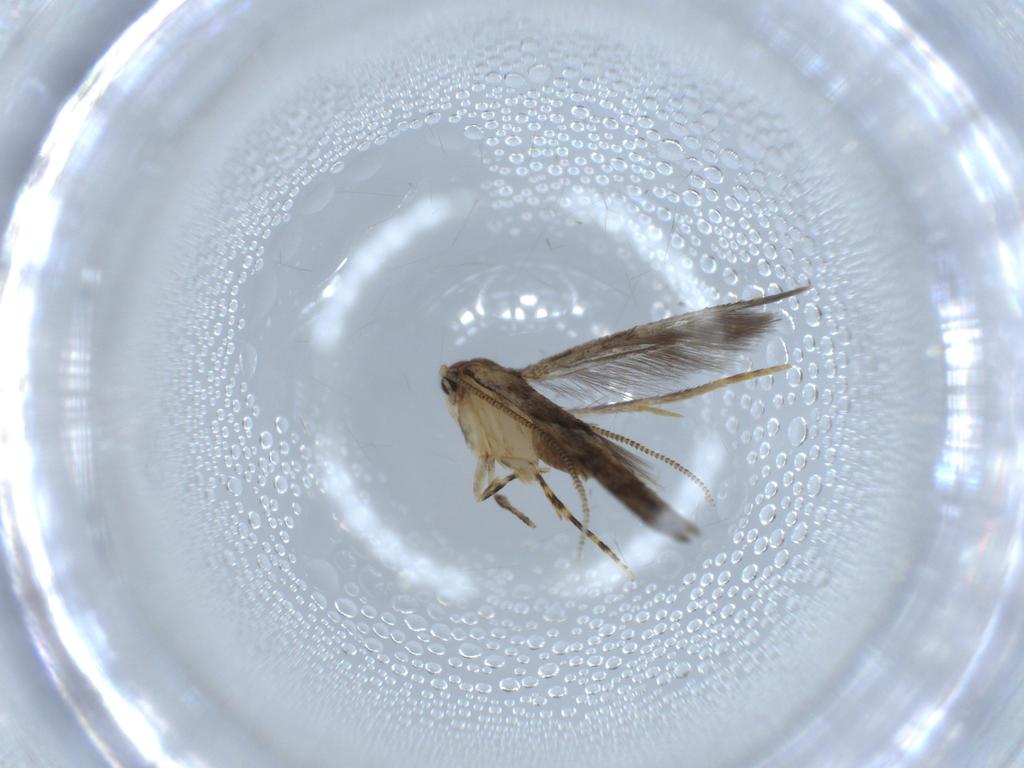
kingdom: Animalia
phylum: Arthropoda
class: Insecta
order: Lepidoptera
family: Tineidae
